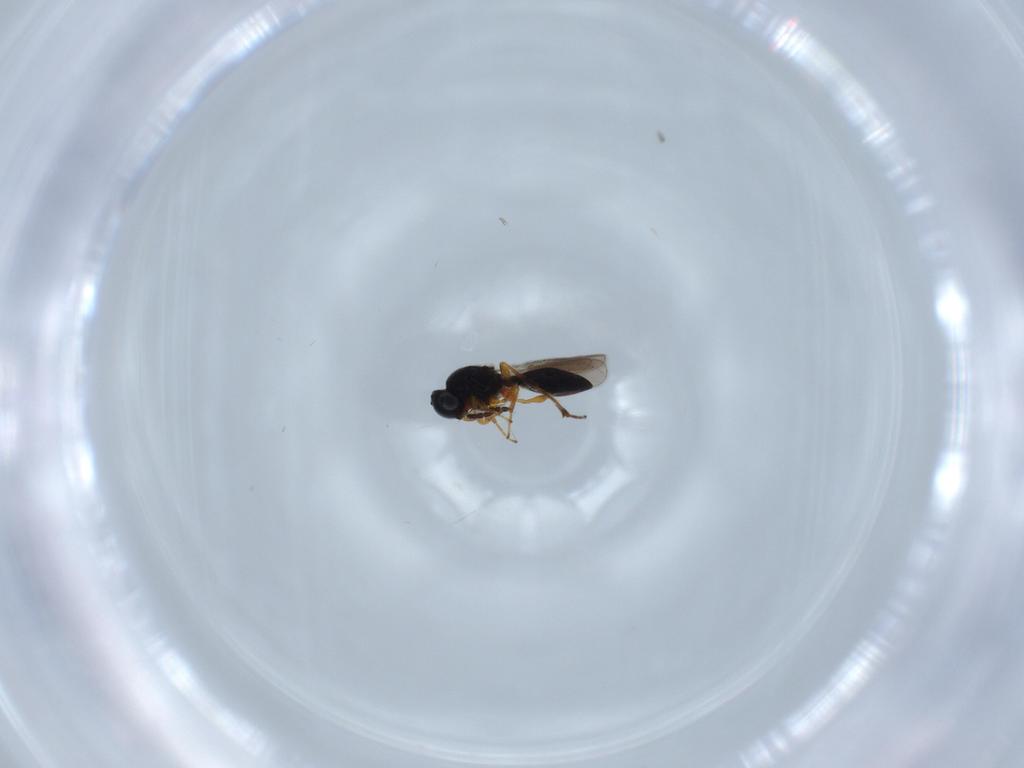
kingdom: Animalia
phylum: Arthropoda
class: Insecta
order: Hymenoptera
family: Platygastridae
